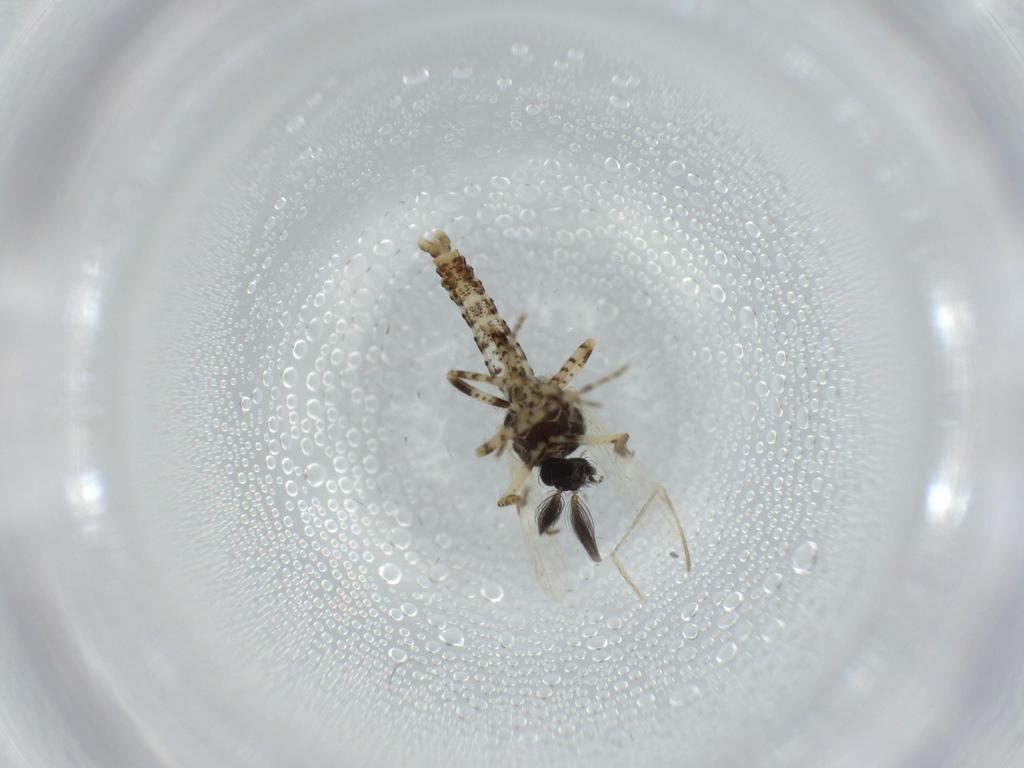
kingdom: Animalia
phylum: Arthropoda
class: Insecta
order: Diptera
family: Ceratopogonidae
